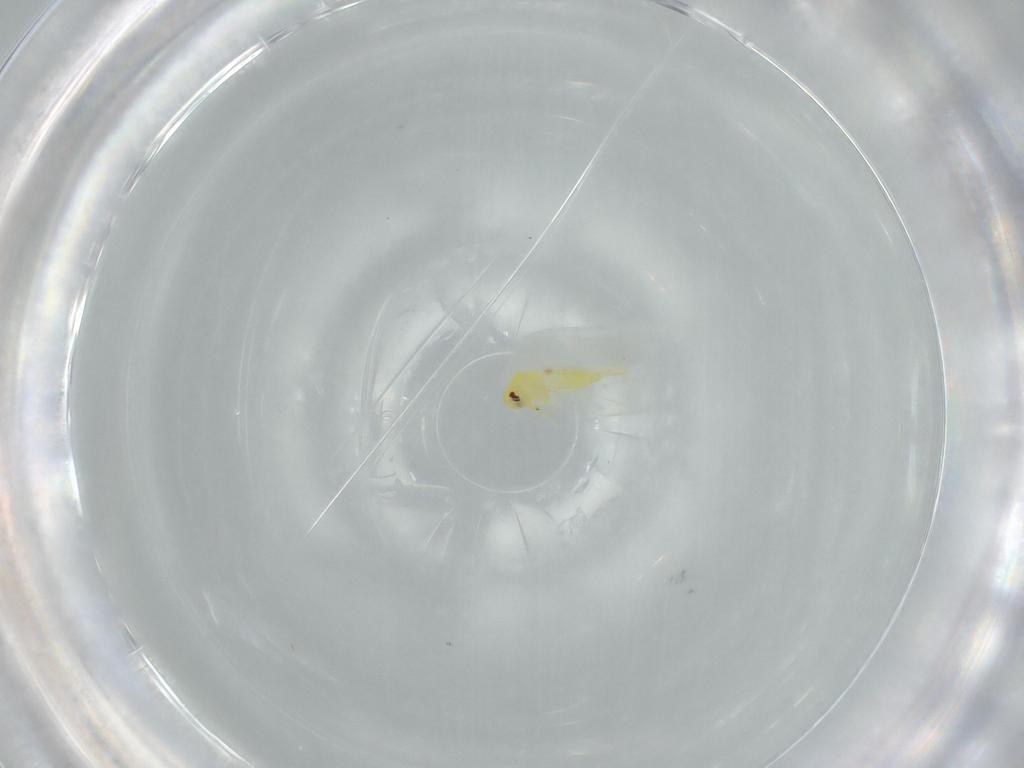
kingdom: Animalia
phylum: Arthropoda
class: Insecta
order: Hemiptera
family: Aleyrodidae
